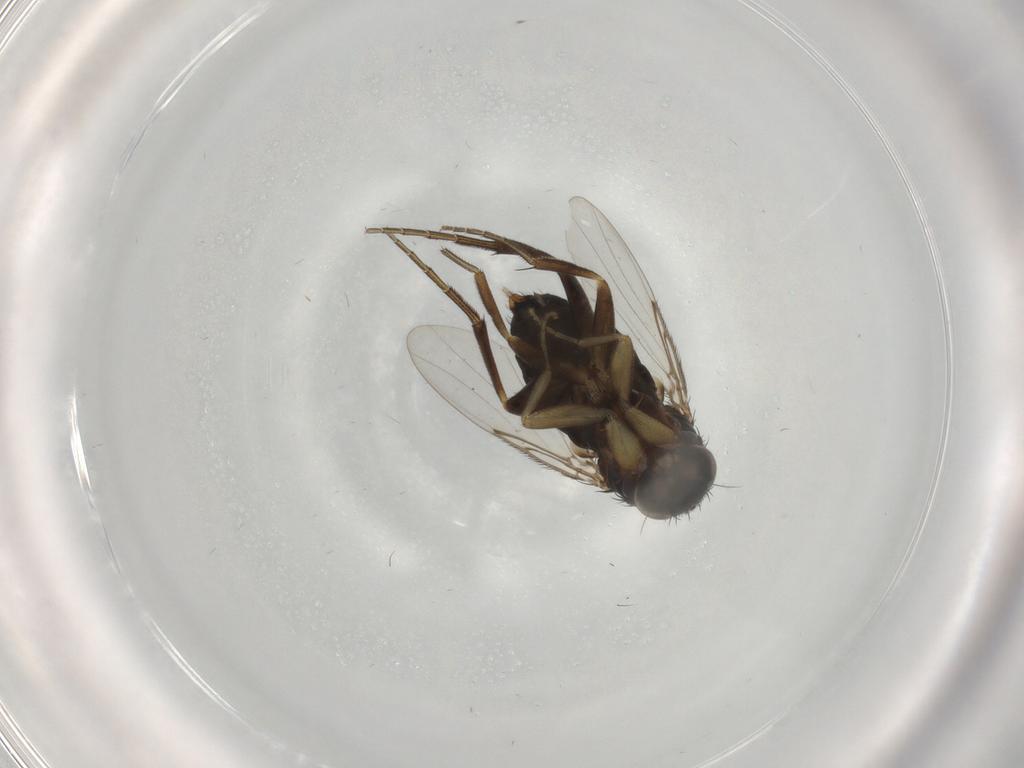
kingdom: Animalia
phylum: Arthropoda
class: Insecta
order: Diptera
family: Phoridae
